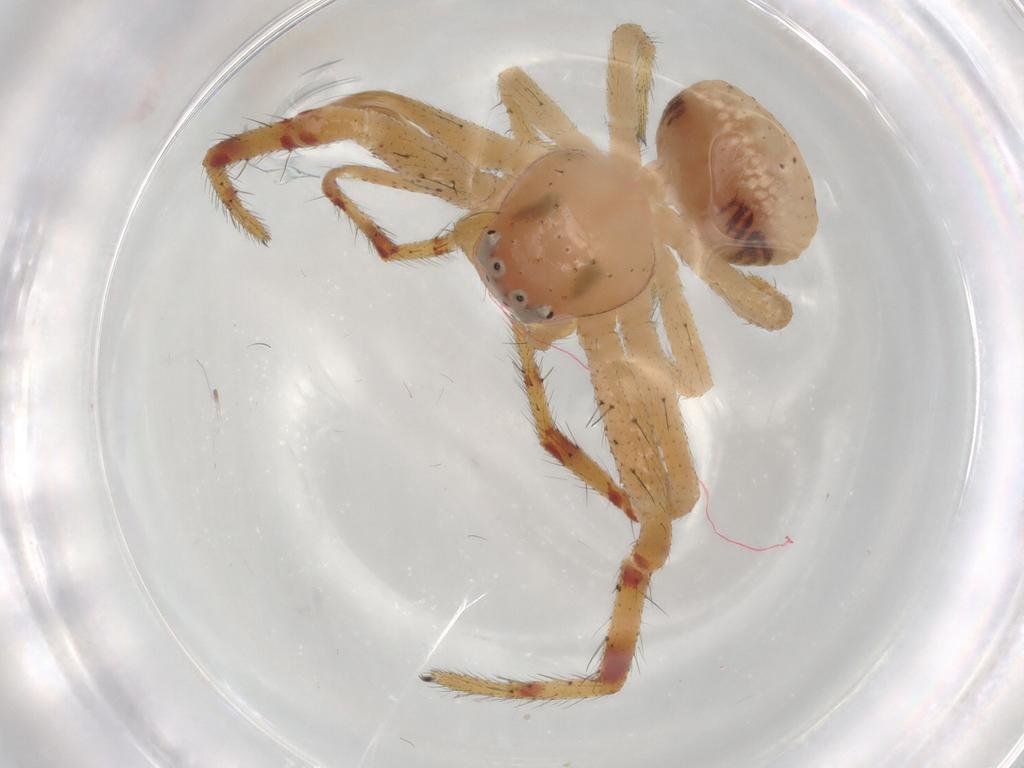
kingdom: Animalia
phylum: Arthropoda
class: Arachnida
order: Araneae
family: Thomisidae
